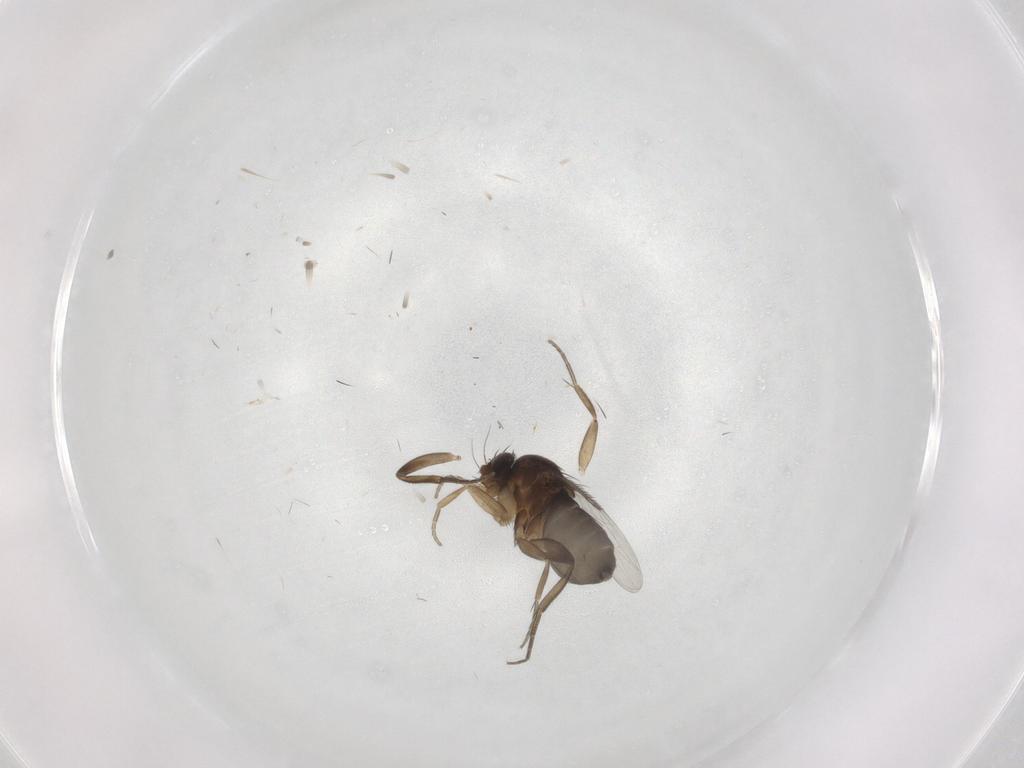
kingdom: Animalia
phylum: Arthropoda
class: Insecta
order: Diptera
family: Phoridae
